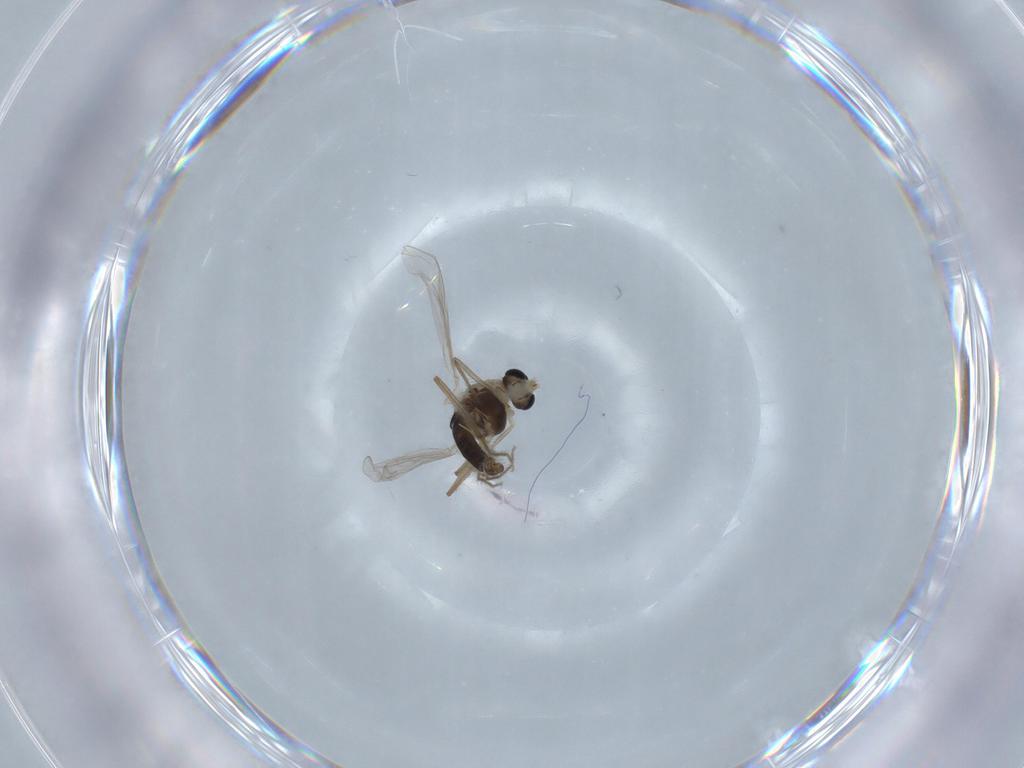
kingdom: Animalia
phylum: Arthropoda
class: Insecta
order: Diptera
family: Chironomidae
